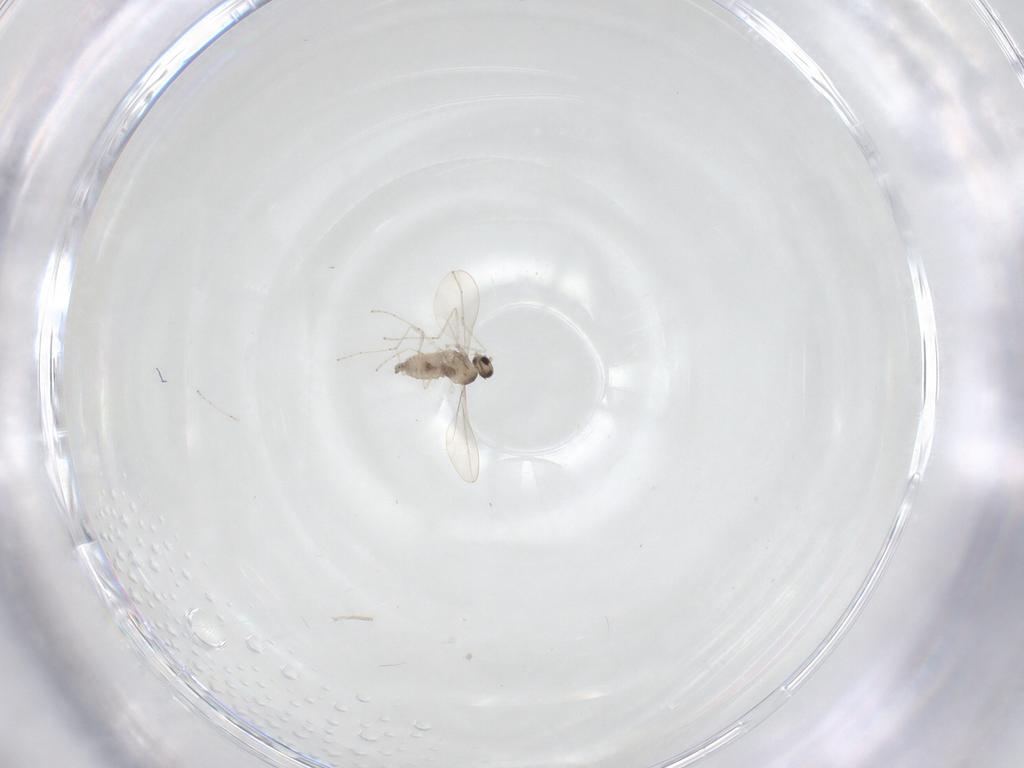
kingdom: Animalia
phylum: Arthropoda
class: Insecta
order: Diptera
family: Cecidomyiidae
